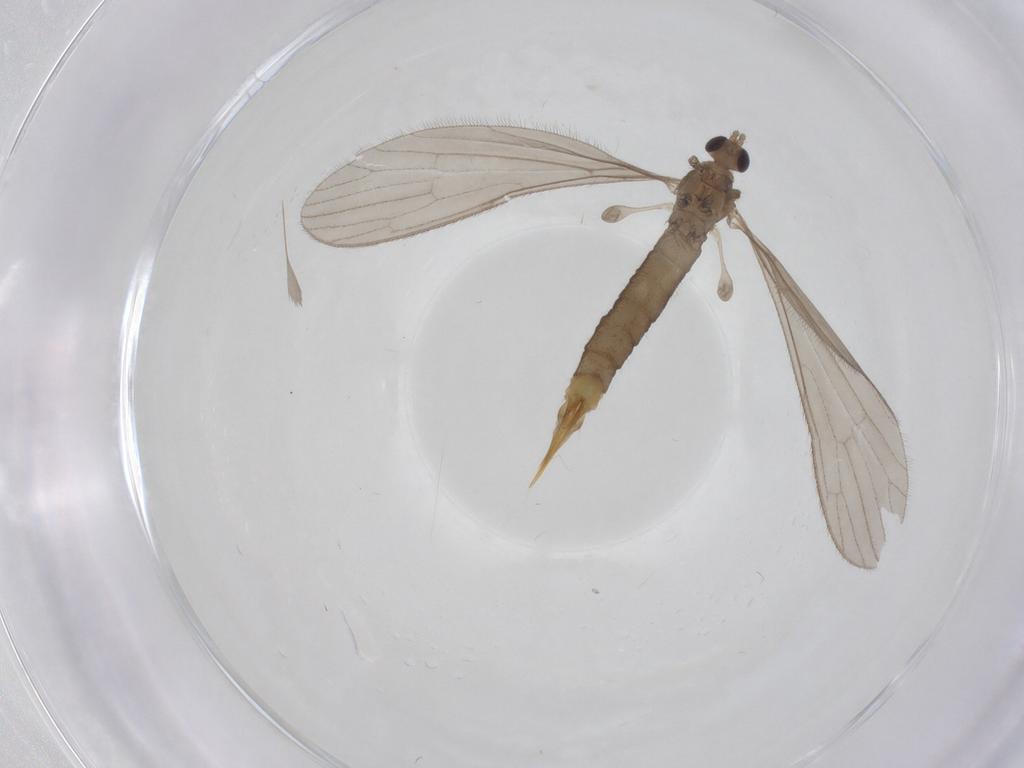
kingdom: Animalia
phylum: Arthropoda
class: Insecta
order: Diptera
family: Limoniidae
